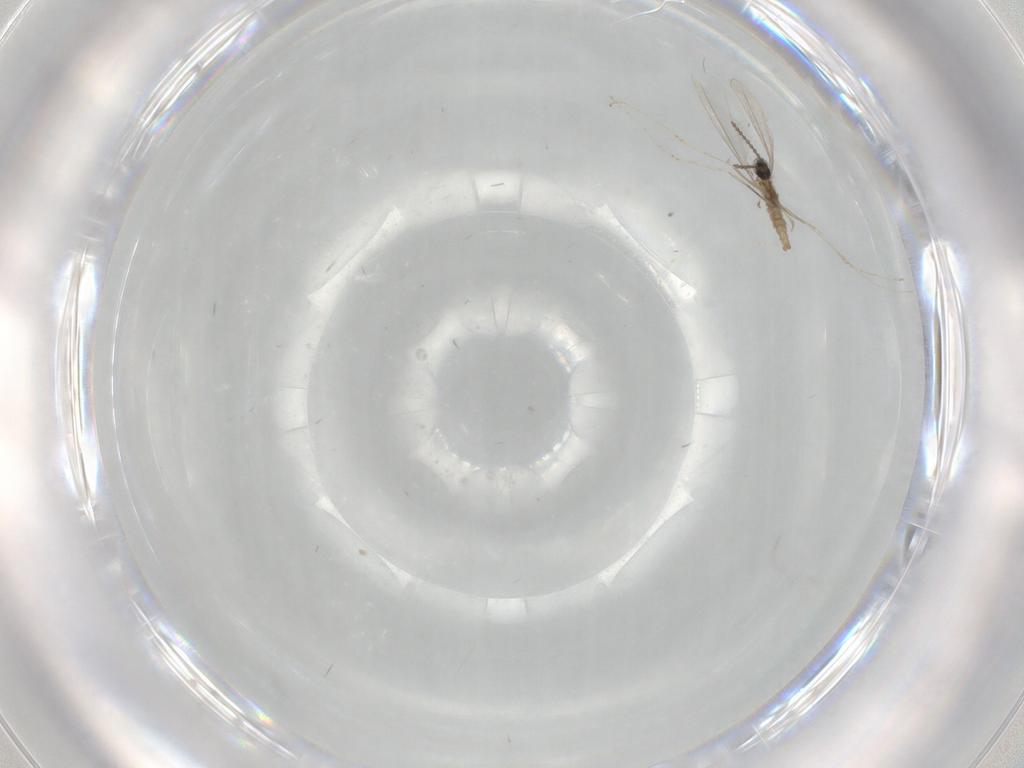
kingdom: Animalia
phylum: Arthropoda
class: Insecta
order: Diptera
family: Cecidomyiidae
